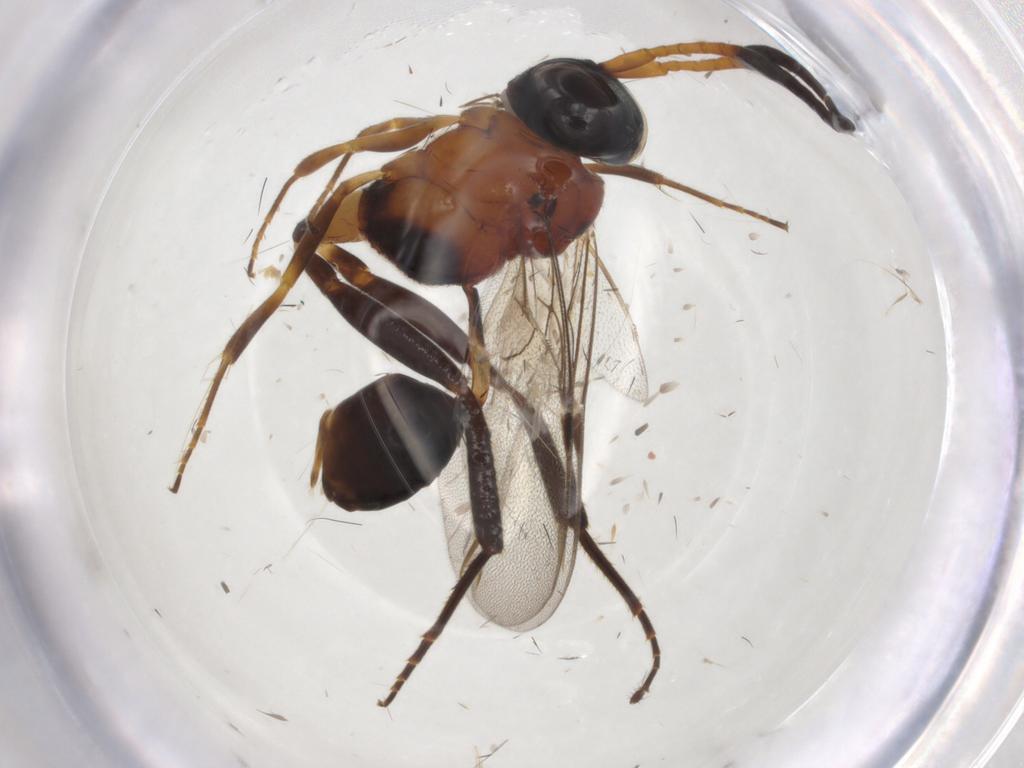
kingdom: Animalia
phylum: Arthropoda
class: Insecta
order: Hymenoptera
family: Evaniidae
